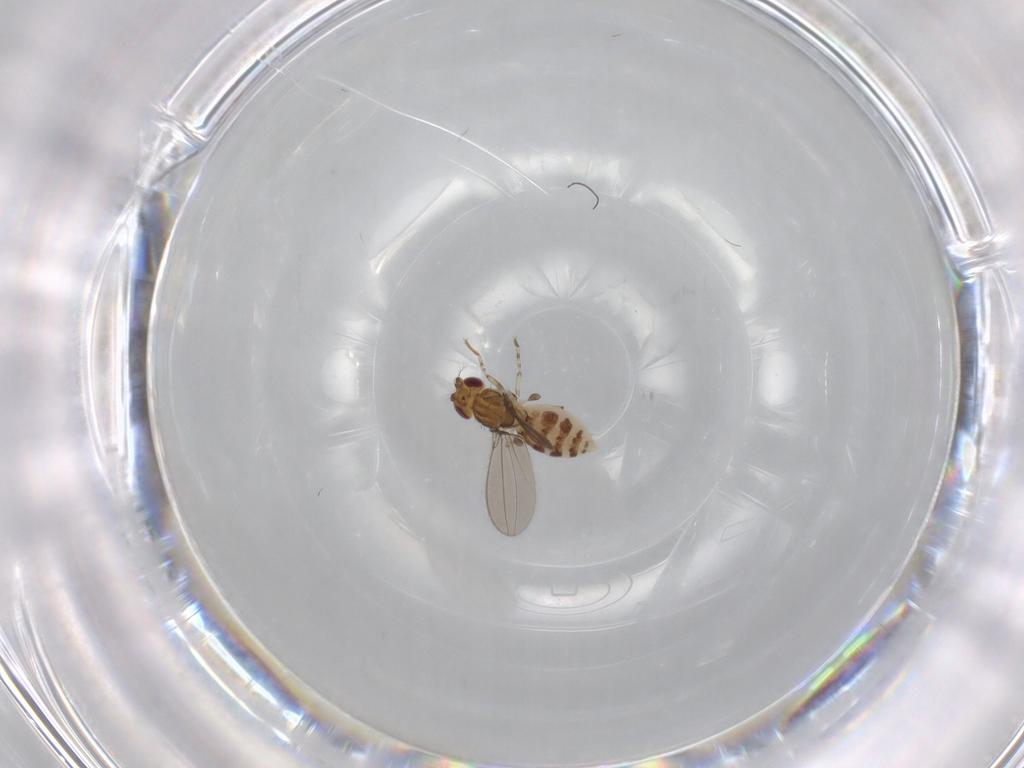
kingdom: Animalia
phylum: Arthropoda
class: Insecta
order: Diptera
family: Asteiidae
